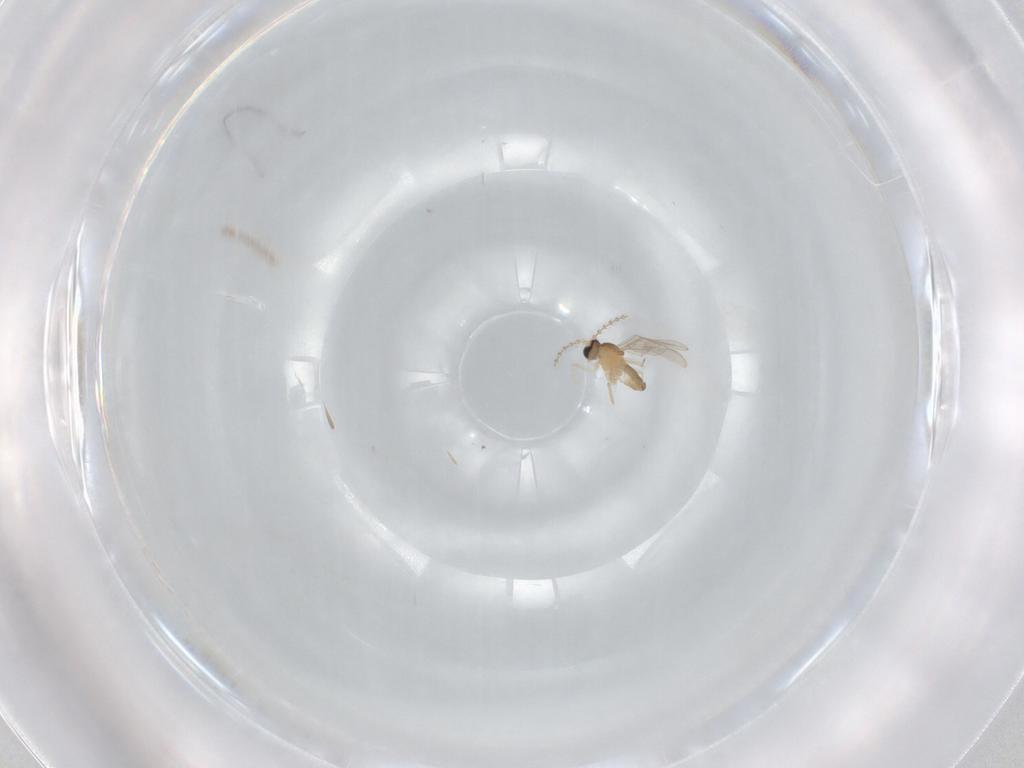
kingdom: Animalia
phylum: Arthropoda
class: Insecta
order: Diptera
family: Cecidomyiidae
